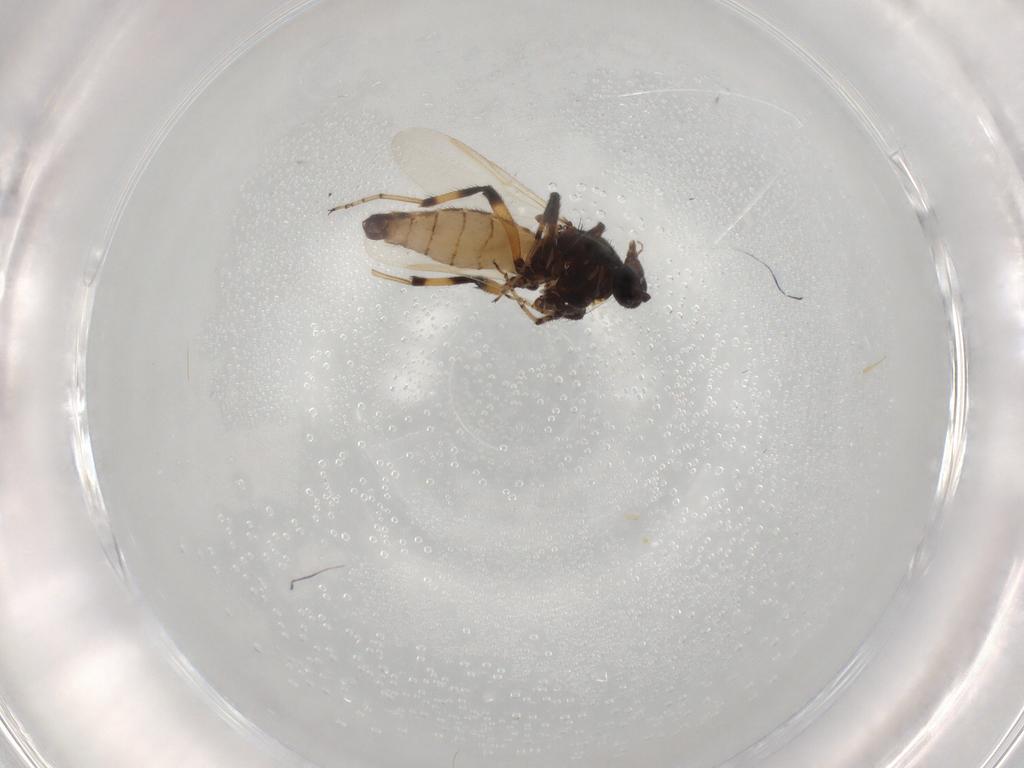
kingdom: Animalia
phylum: Arthropoda
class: Insecta
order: Diptera
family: Ceratopogonidae
